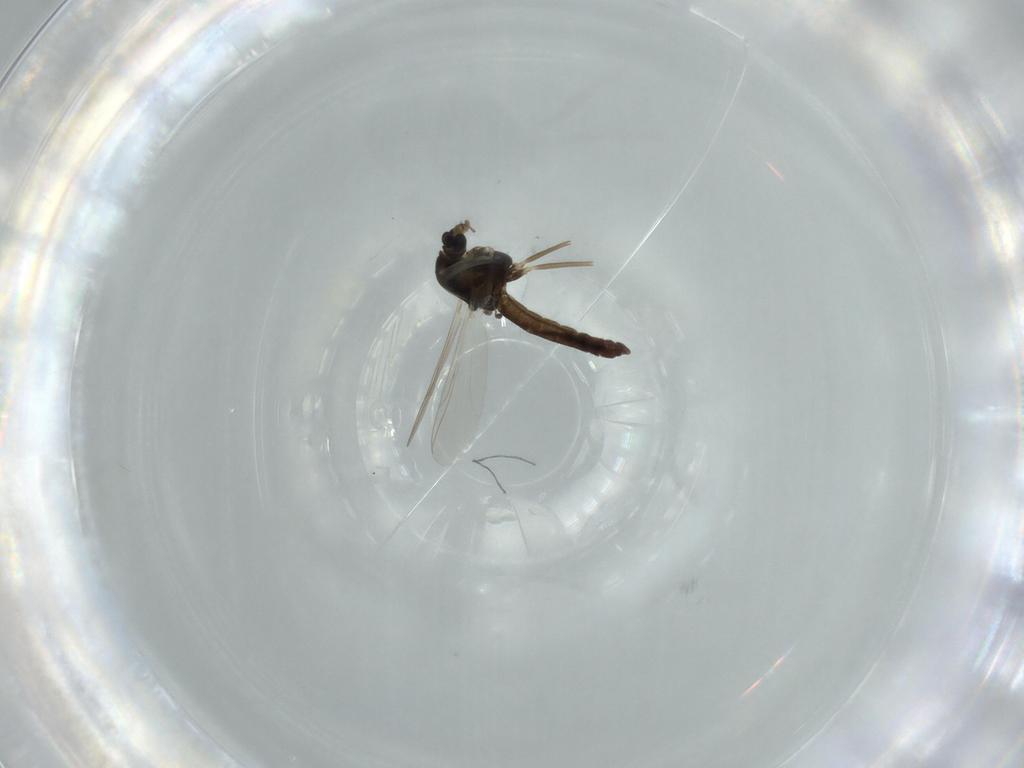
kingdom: Animalia
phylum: Arthropoda
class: Insecta
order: Diptera
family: Chironomidae
